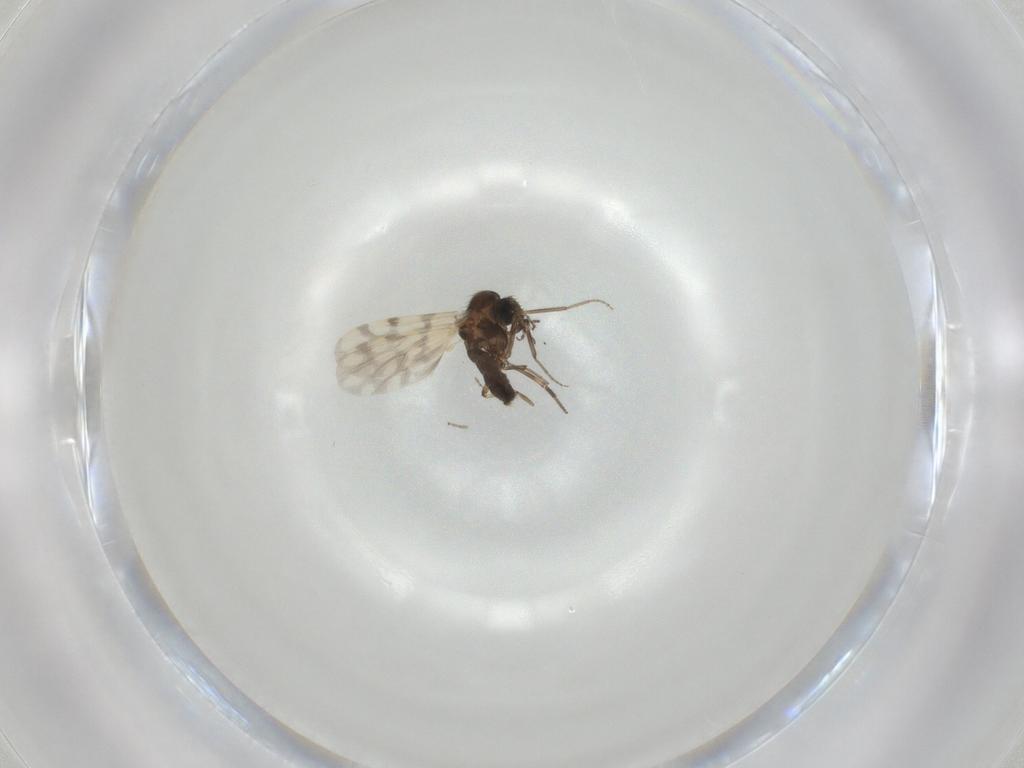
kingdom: Animalia
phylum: Arthropoda
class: Insecta
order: Diptera
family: Ceratopogonidae
